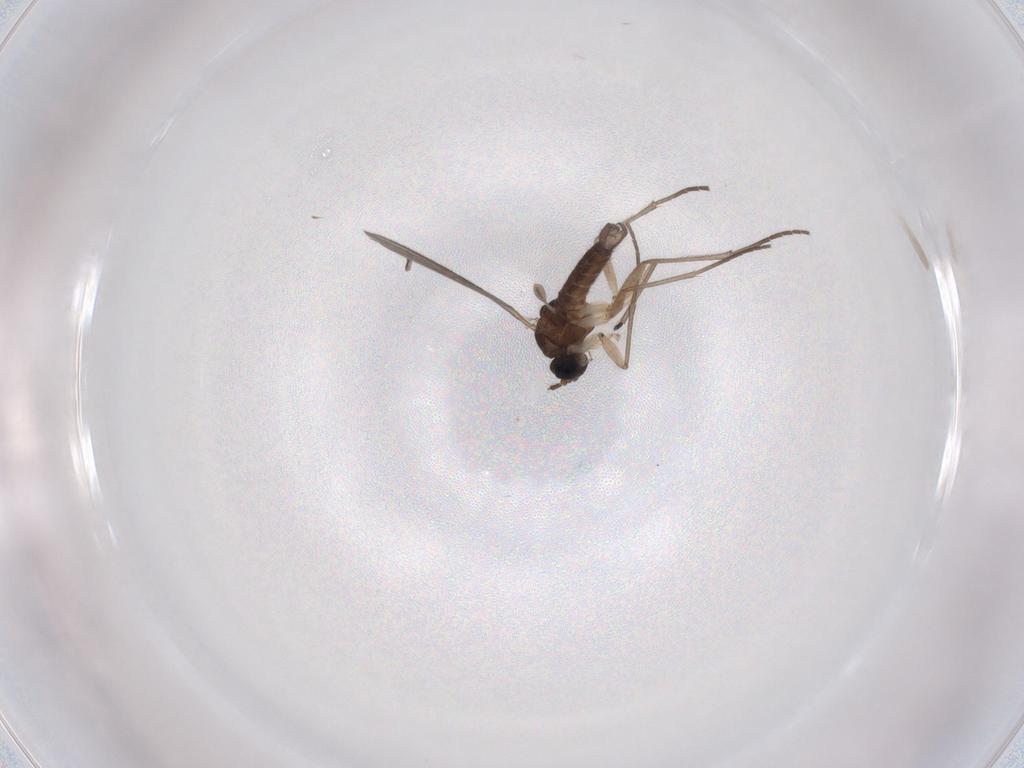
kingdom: Animalia
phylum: Arthropoda
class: Insecta
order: Diptera
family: Sciaridae
